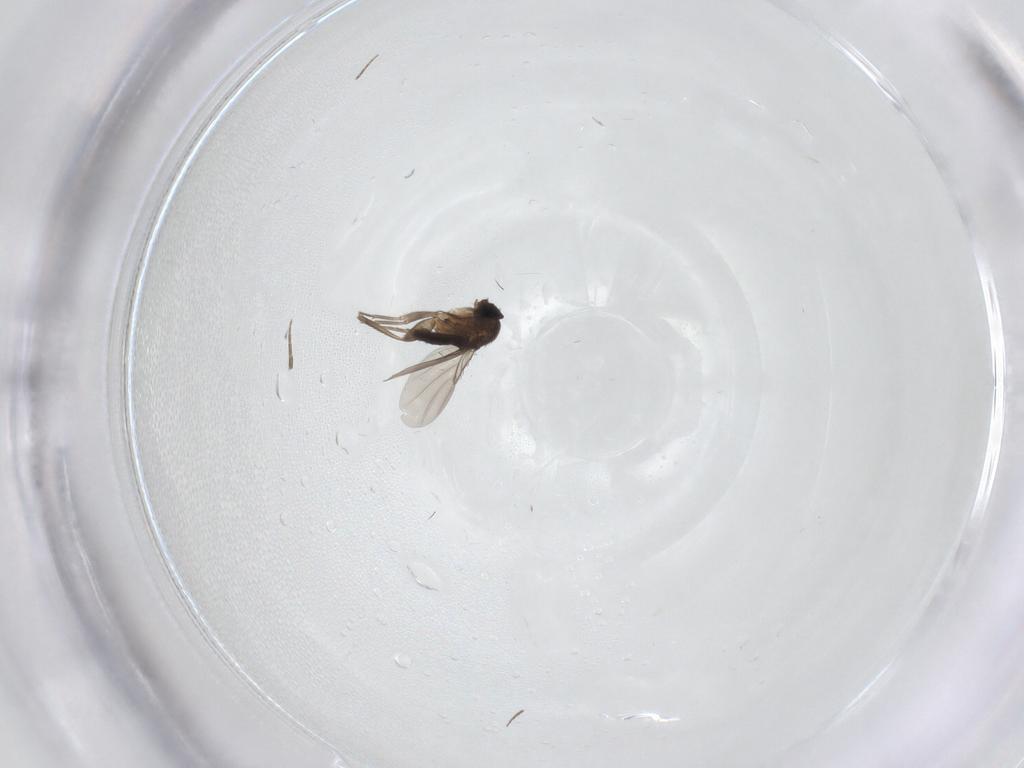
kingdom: Animalia
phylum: Arthropoda
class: Insecta
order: Diptera
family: Phoridae
